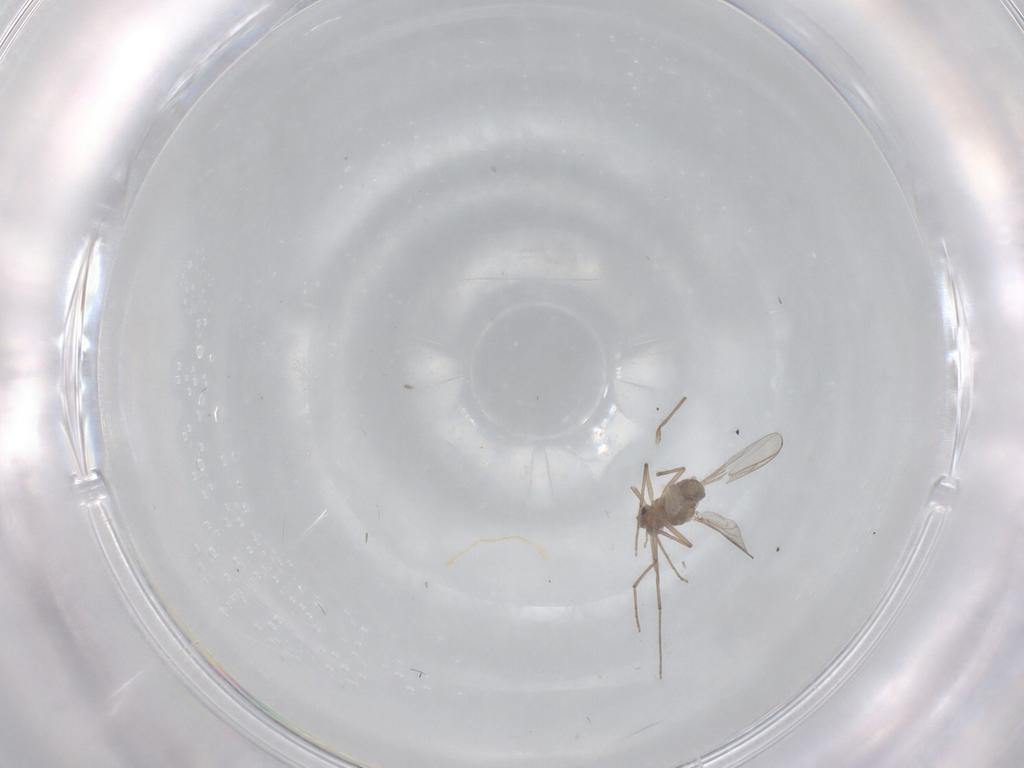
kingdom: Animalia
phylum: Arthropoda
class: Insecta
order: Diptera
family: Chironomidae
